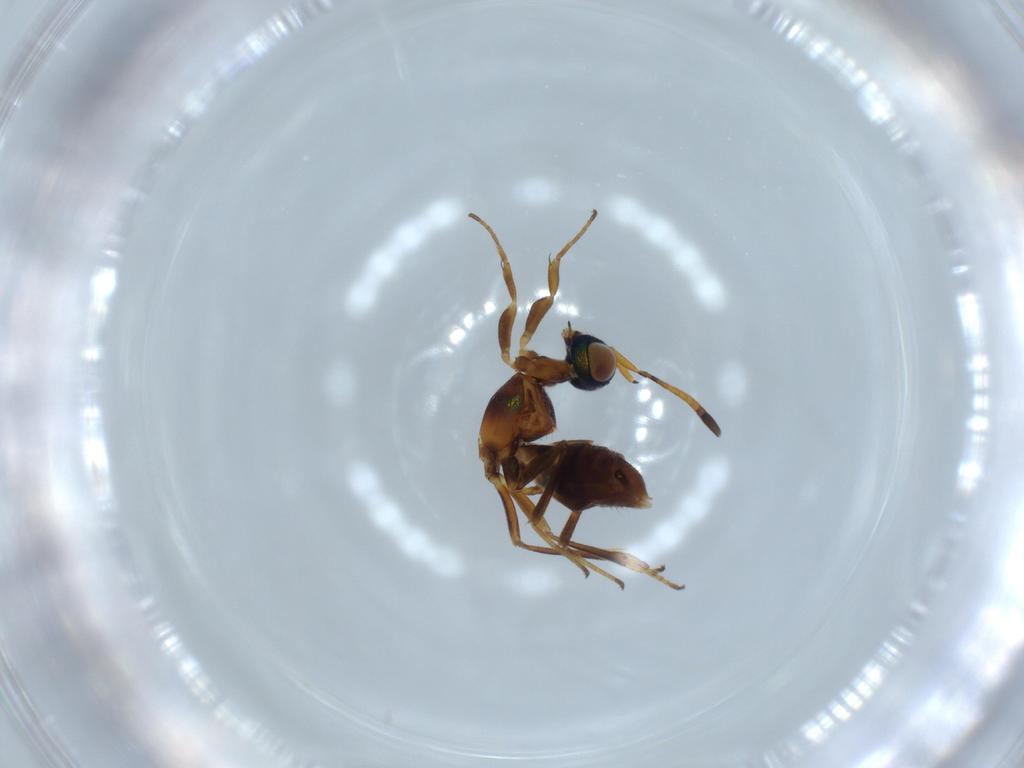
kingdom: Animalia
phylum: Arthropoda
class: Insecta
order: Hymenoptera
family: Eupelmidae
